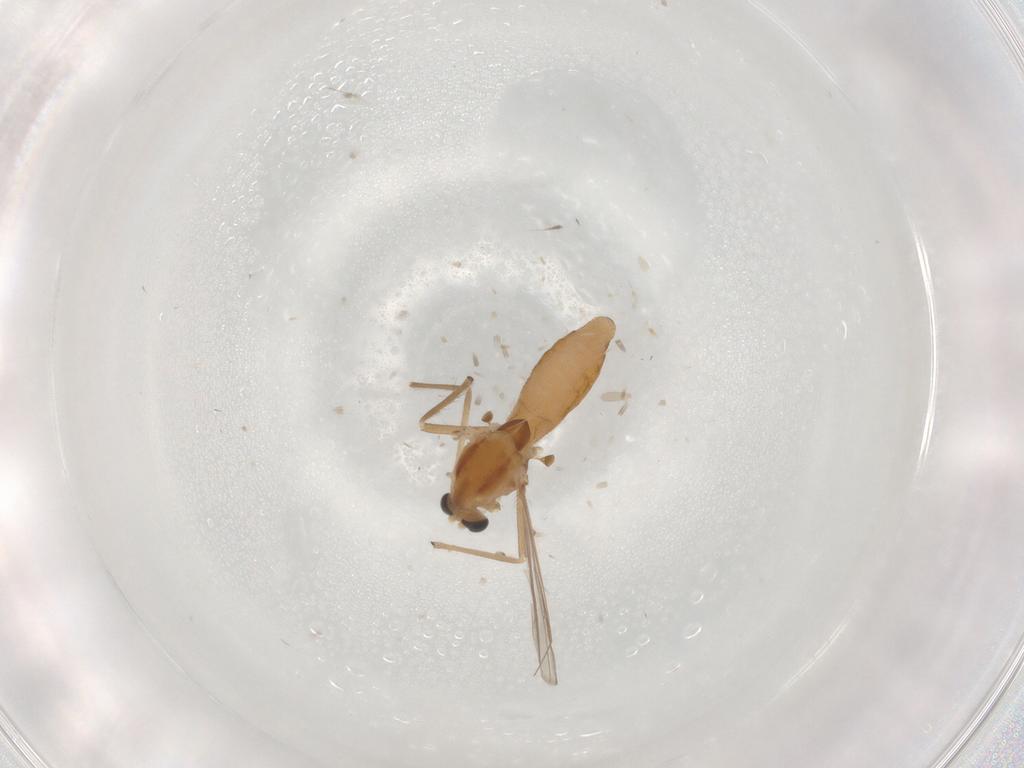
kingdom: Animalia
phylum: Arthropoda
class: Insecta
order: Diptera
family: Chironomidae
